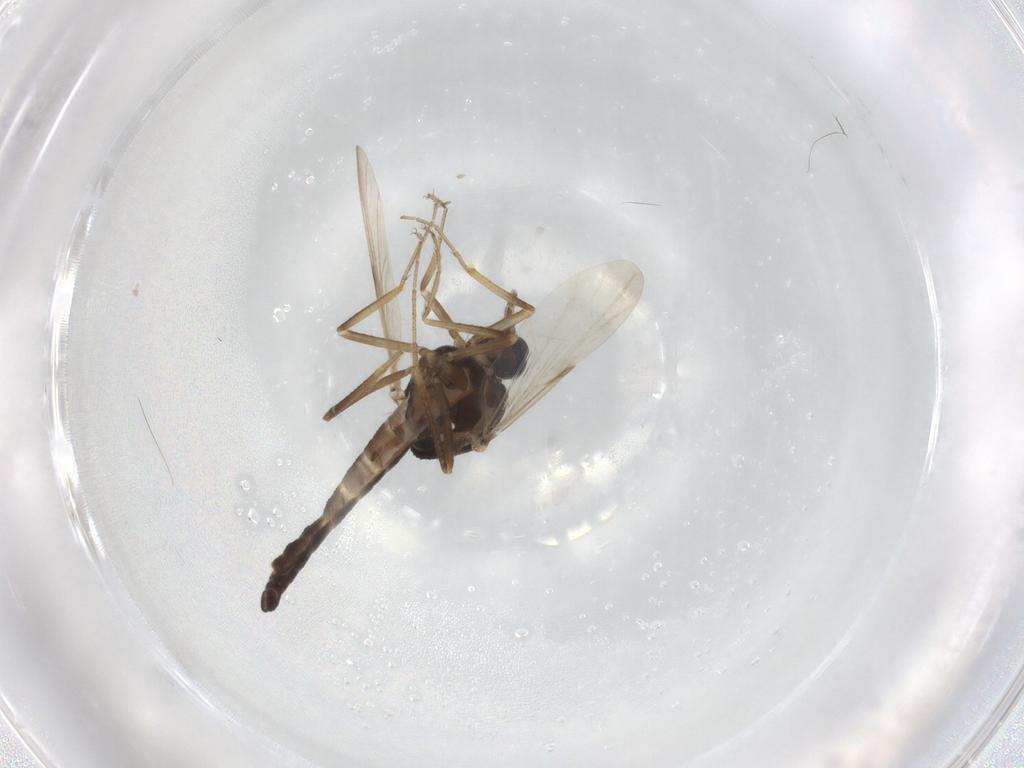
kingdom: Animalia
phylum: Arthropoda
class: Insecta
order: Diptera
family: Ceratopogonidae
